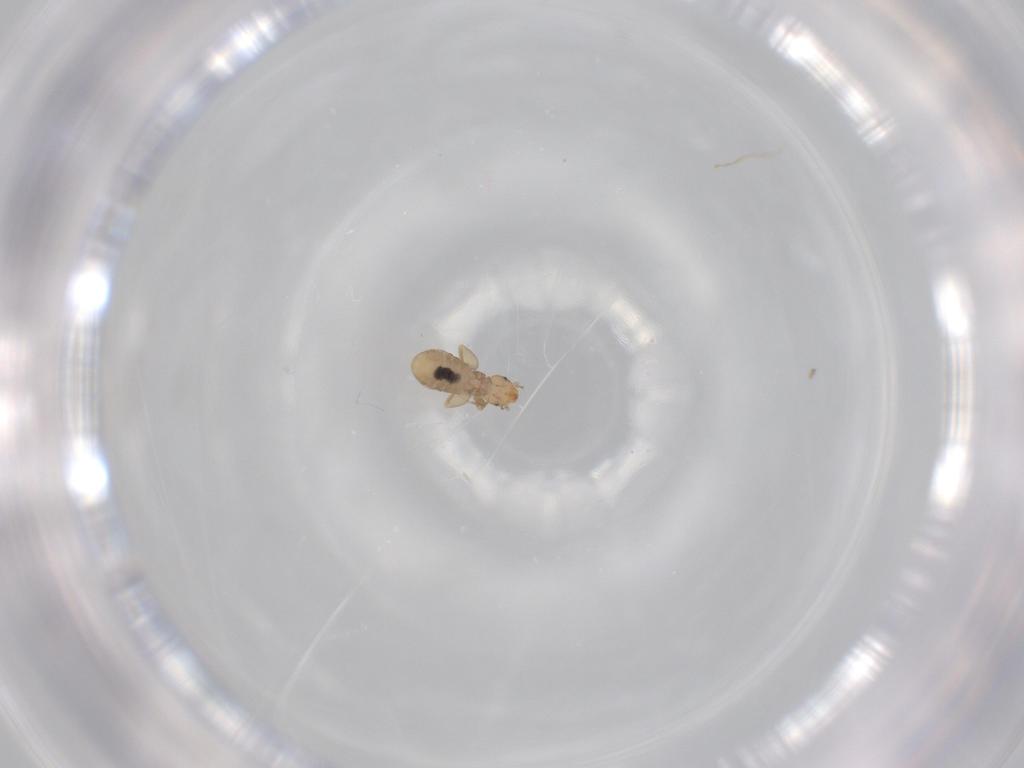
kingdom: Animalia
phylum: Arthropoda
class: Insecta
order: Psocodea
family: Liposcelididae
